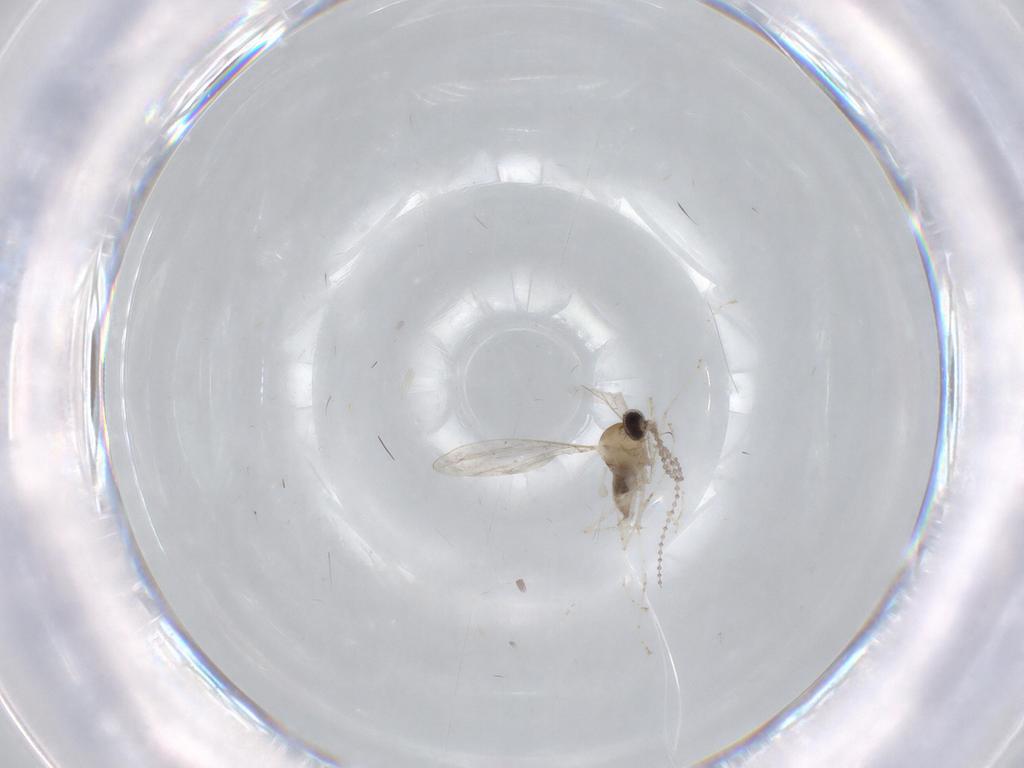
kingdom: Animalia
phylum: Arthropoda
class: Insecta
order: Diptera
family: Cecidomyiidae
